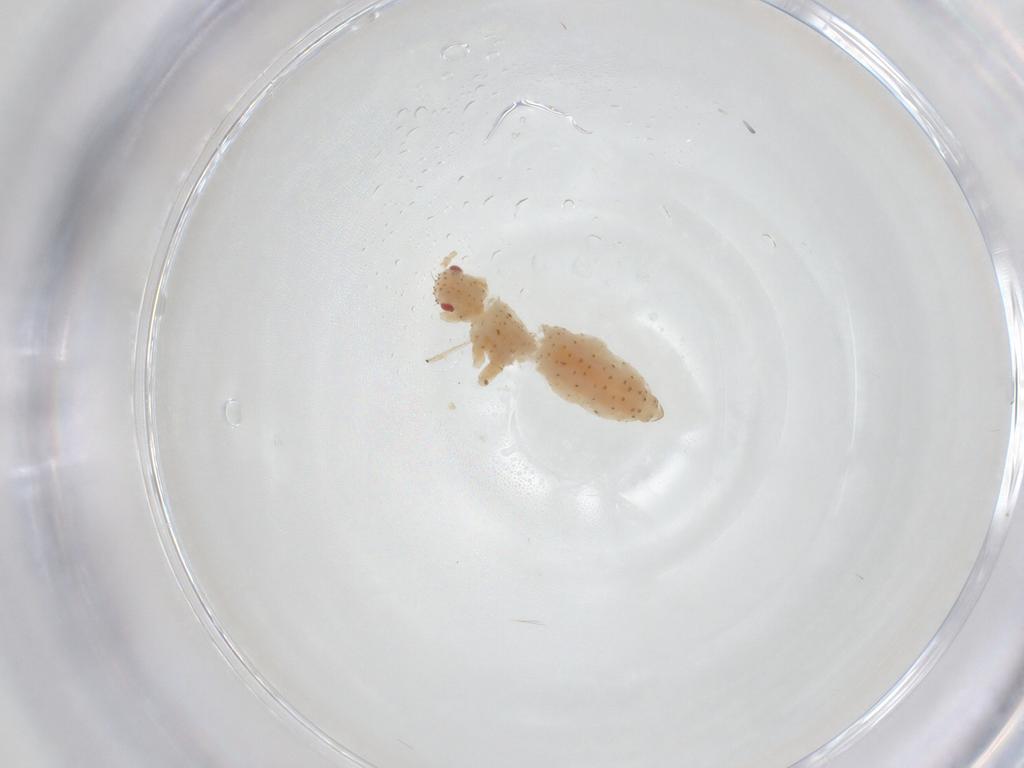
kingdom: Animalia
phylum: Arthropoda
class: Insecta
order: Hemiptera
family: Aphididae
